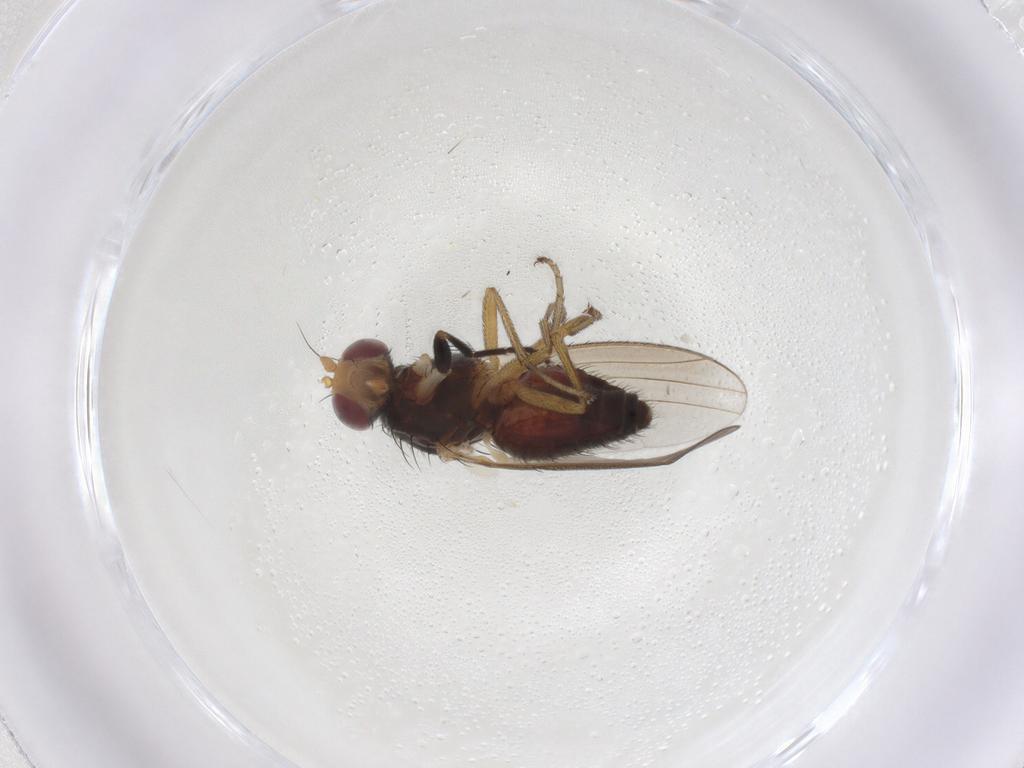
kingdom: Animalia
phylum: Arthropoda
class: Insecta
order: Diptera
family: Heleomyzidae
